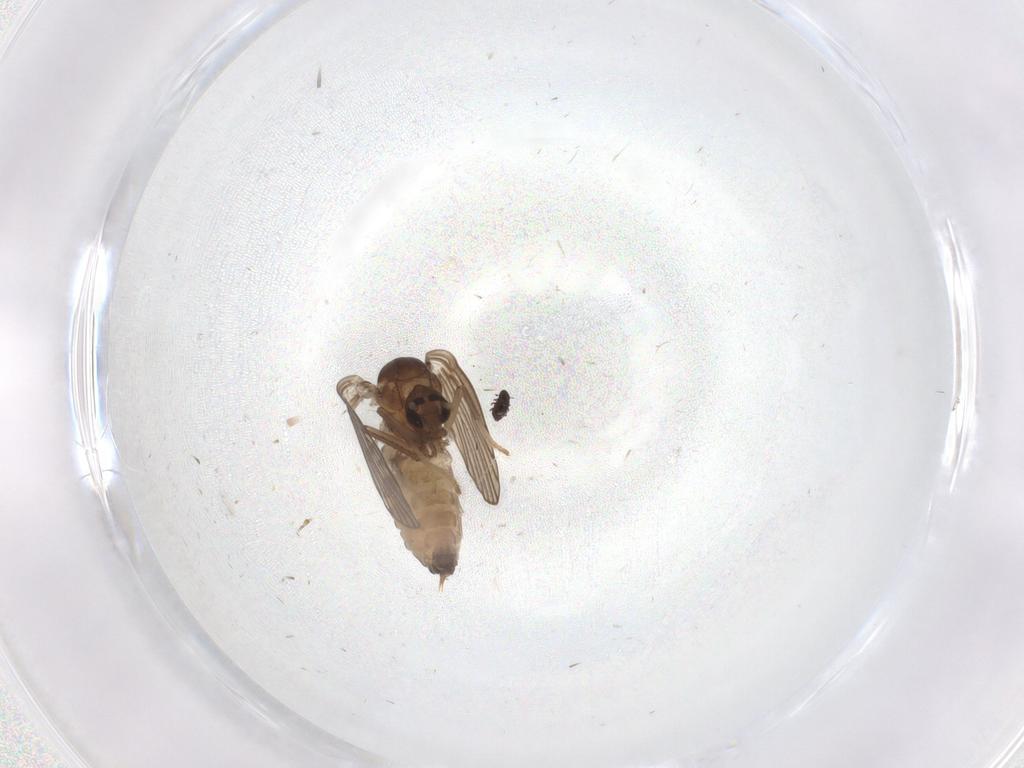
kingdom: Animalia
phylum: Arthropoda
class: Insecta
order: Diptera
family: Psychodidae
